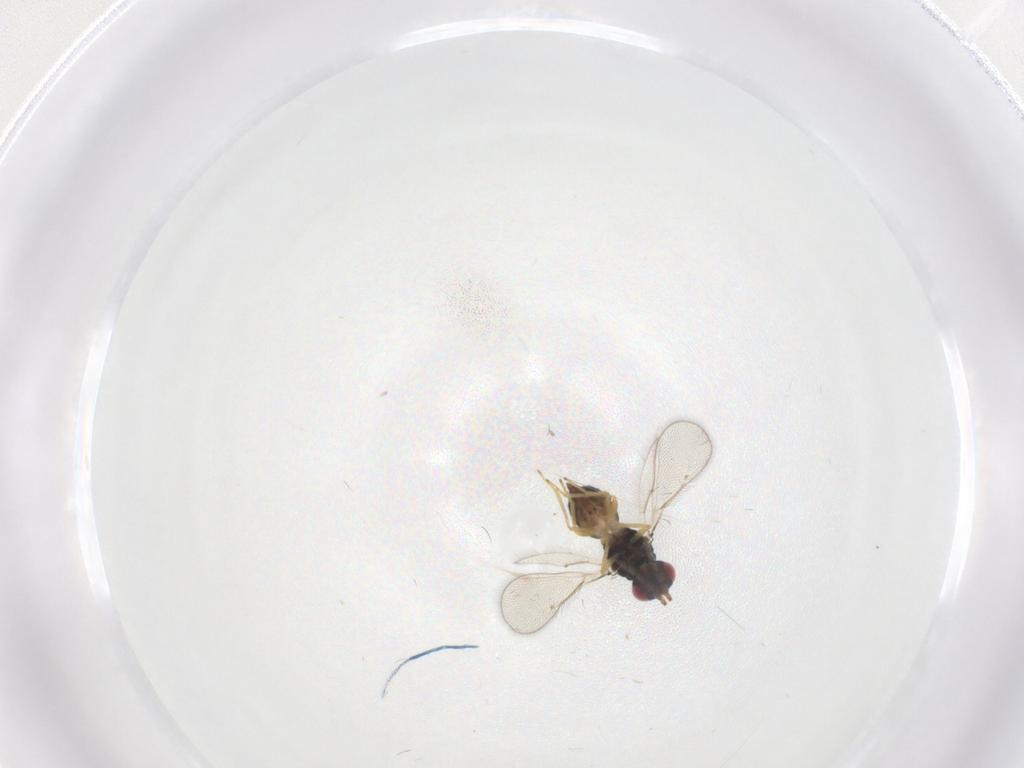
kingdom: Animalia
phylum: Arthropoda
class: Insecta
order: Hymenoptera
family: Eulophidae
